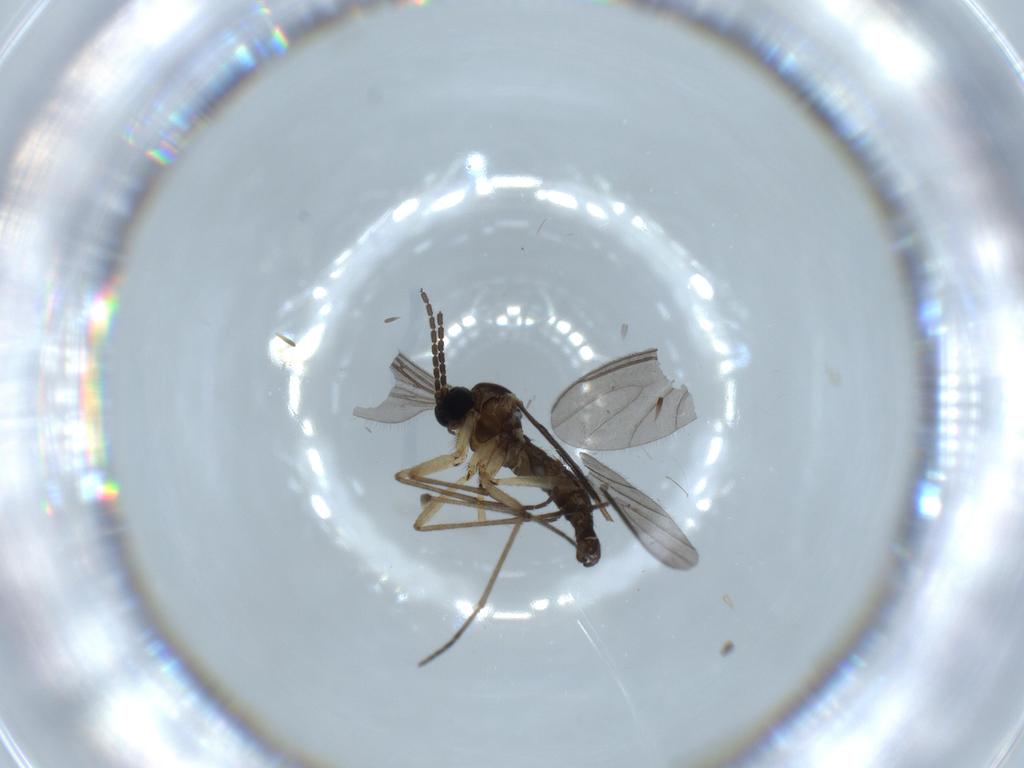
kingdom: Animalia
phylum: Arthropoda
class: Insecta
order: Diptera
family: Sciaridae
